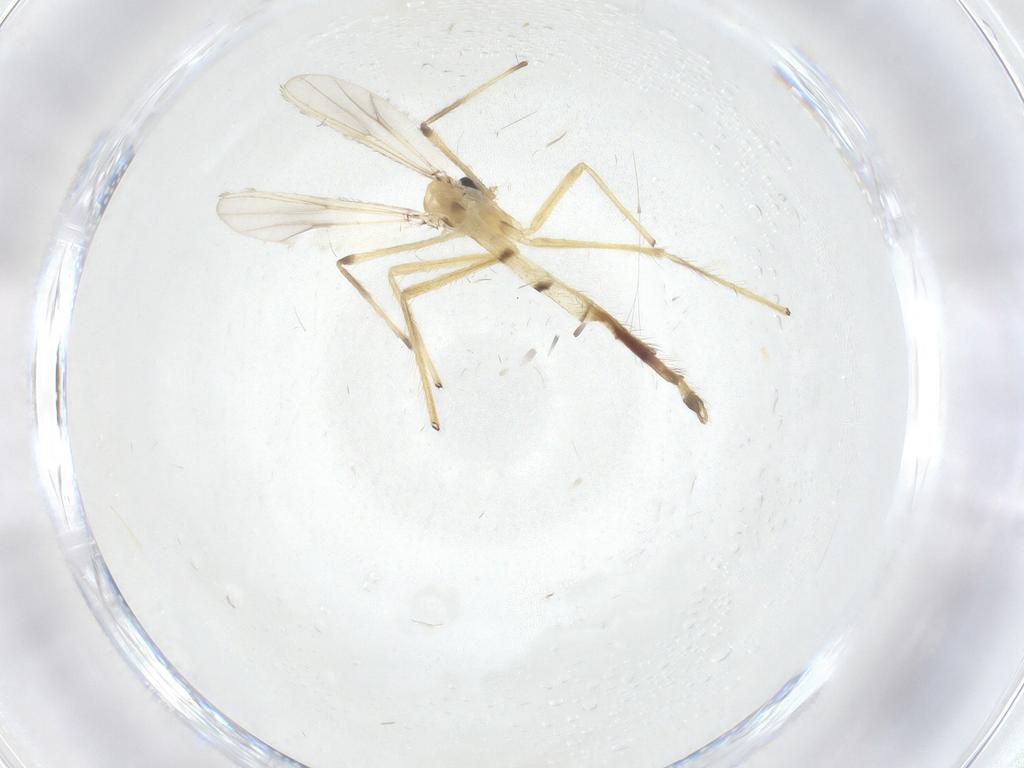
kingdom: Animalia
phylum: Arthropoda
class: Insecta
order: Diptera
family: Chironomidae
